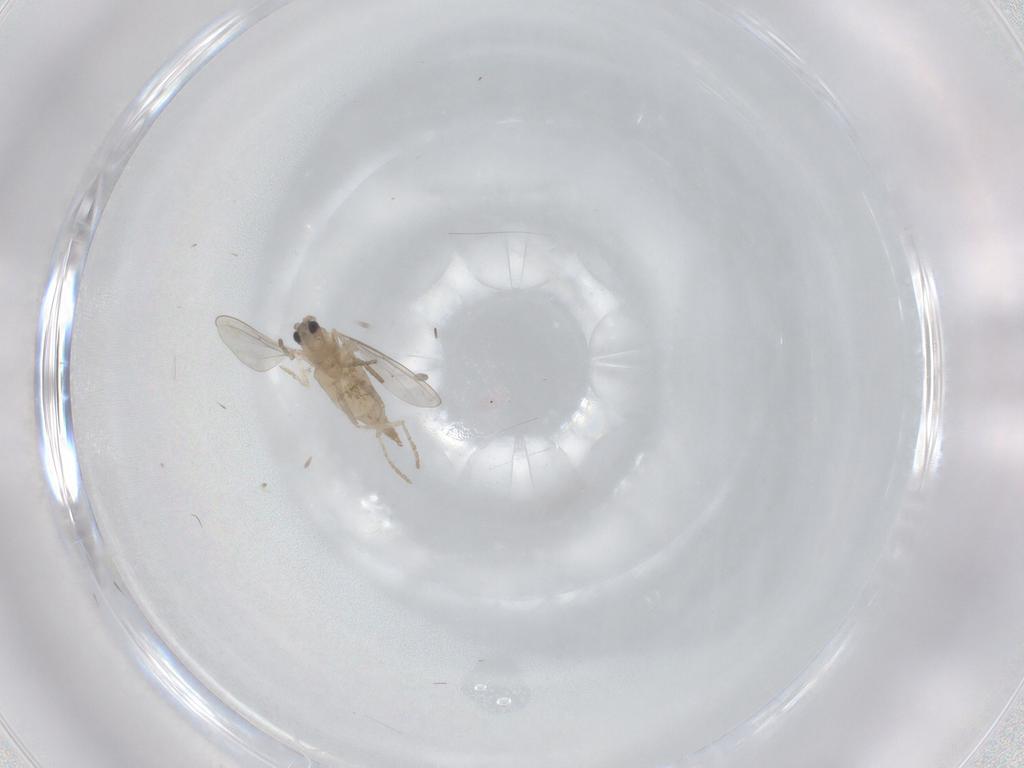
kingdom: Animalia
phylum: Arthropoda
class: Insecta
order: Diptera
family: Cecidomyiidae
